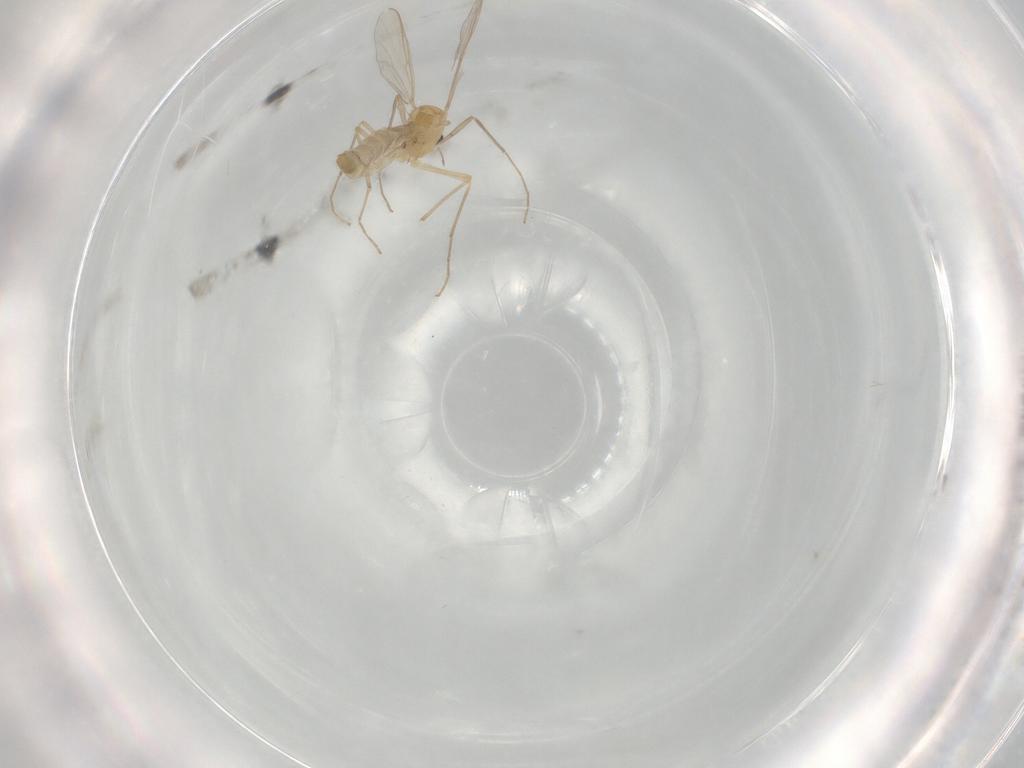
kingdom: Animalia
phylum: Arthropoda
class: Insecta
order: Diptera
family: Chironomidae
